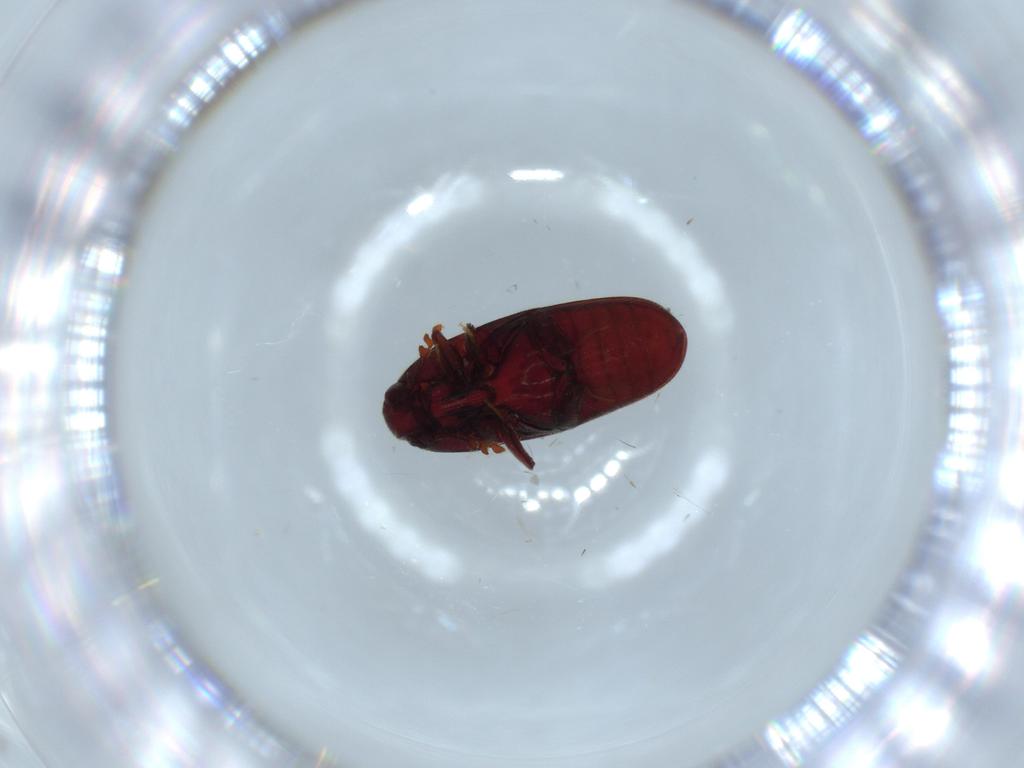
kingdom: Animalia
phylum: Arthropoda
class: Insecta
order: Coleoptera
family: Throscidae
